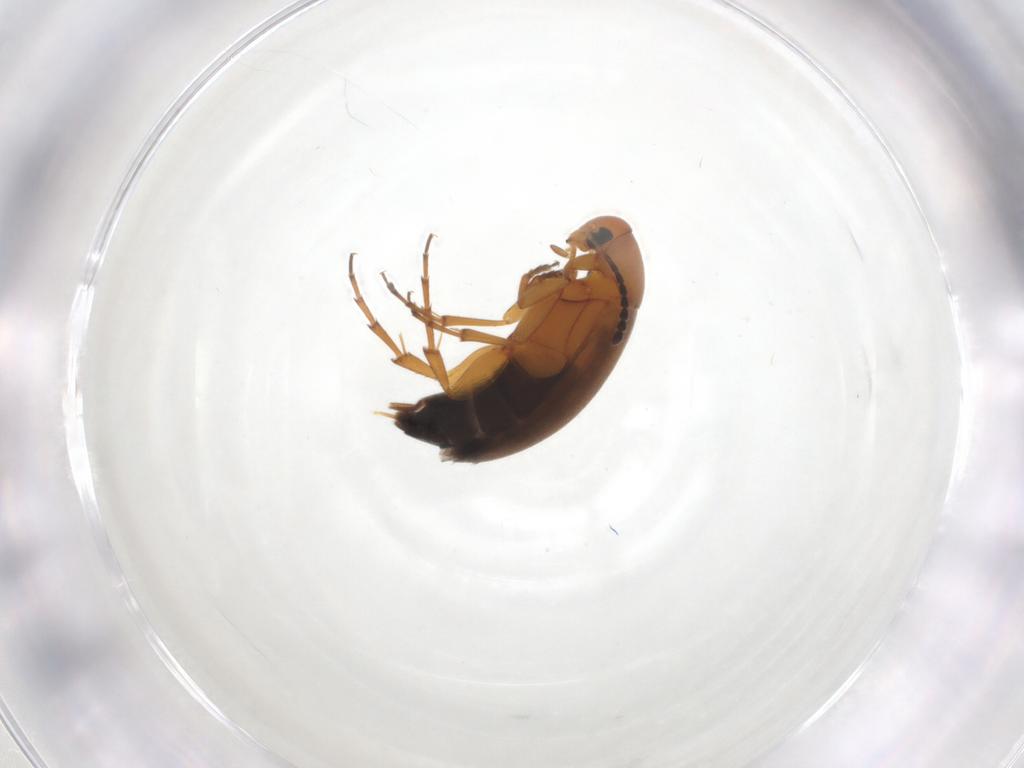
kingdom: Animalia
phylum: Arthropoda
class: Insecta
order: Coleoptera
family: Scraptiidae
